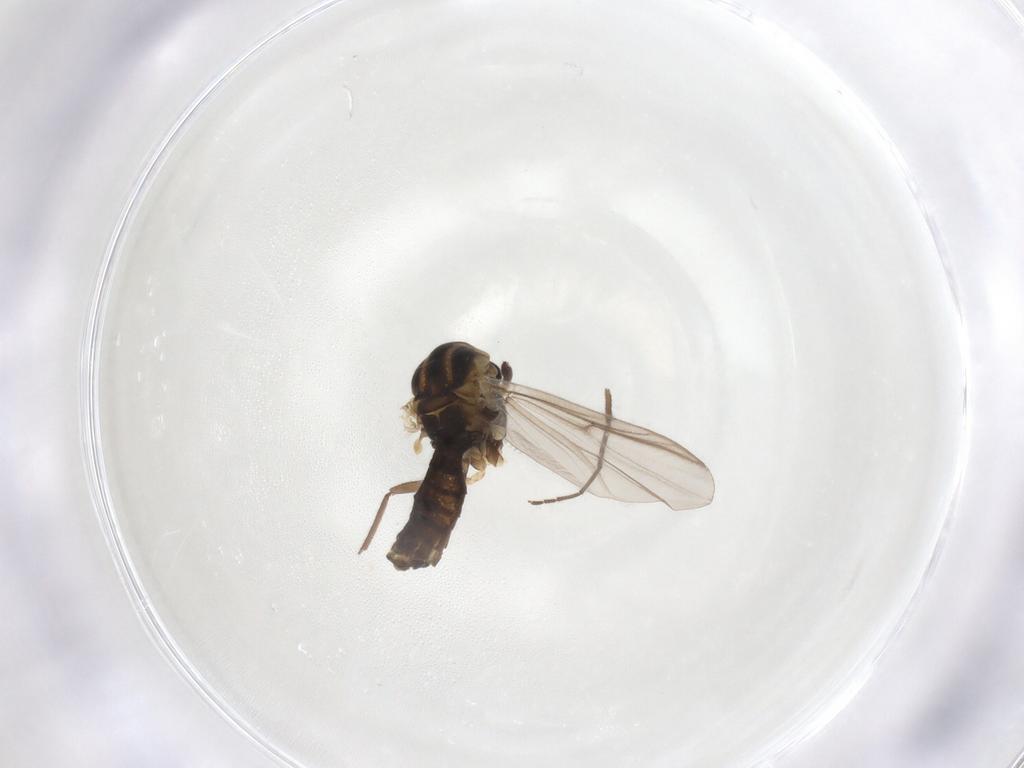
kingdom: Animalia
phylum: Arthropoda
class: Insecta
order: Diptera
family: Chironomidae
